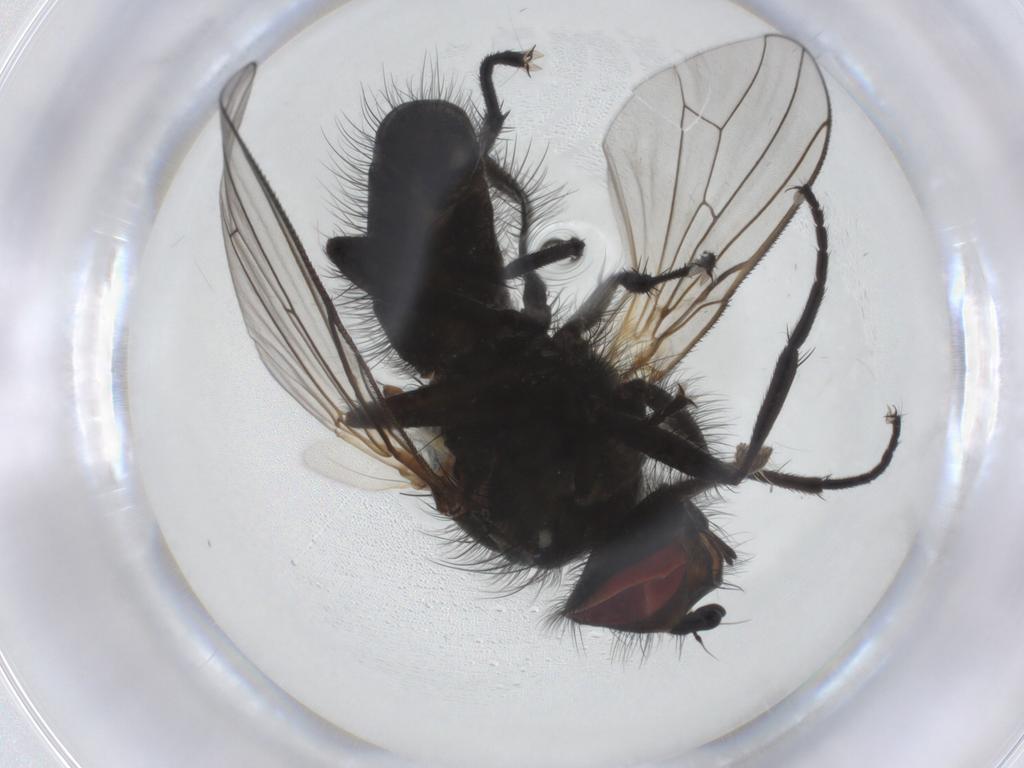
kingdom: Animalia
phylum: Arthropoda
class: Insecta
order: Diptera
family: Anthomyiidae
